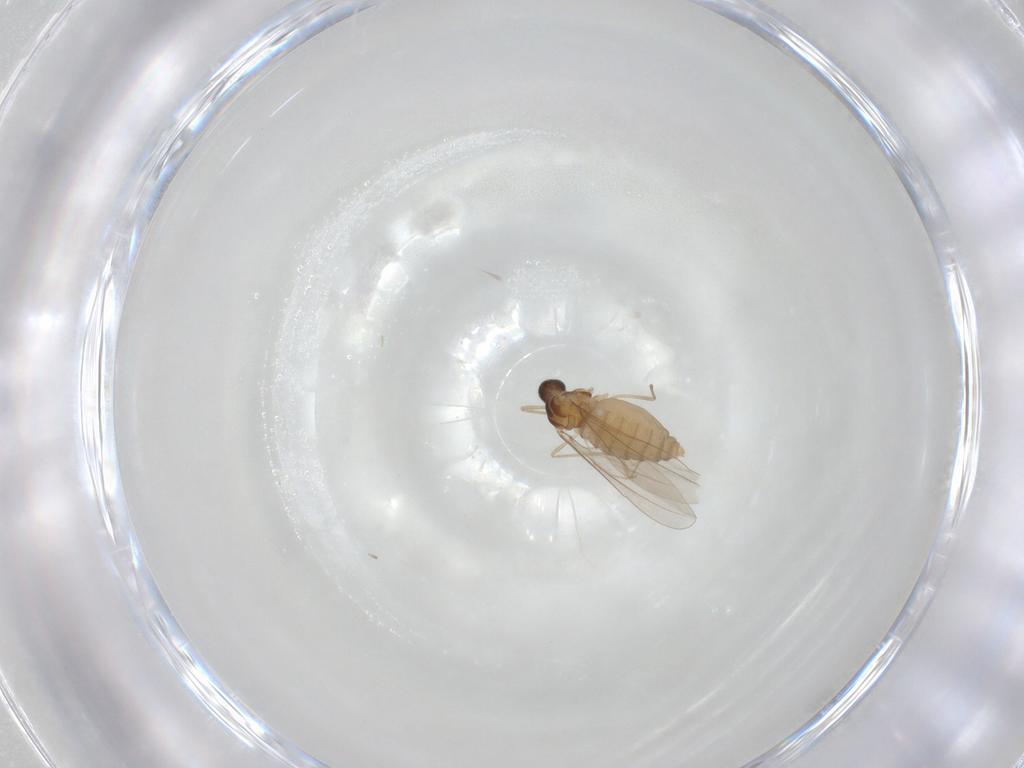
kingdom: Animalia
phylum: Arthropoda
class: Insecta
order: Diptera
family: Cecidomyiidae
